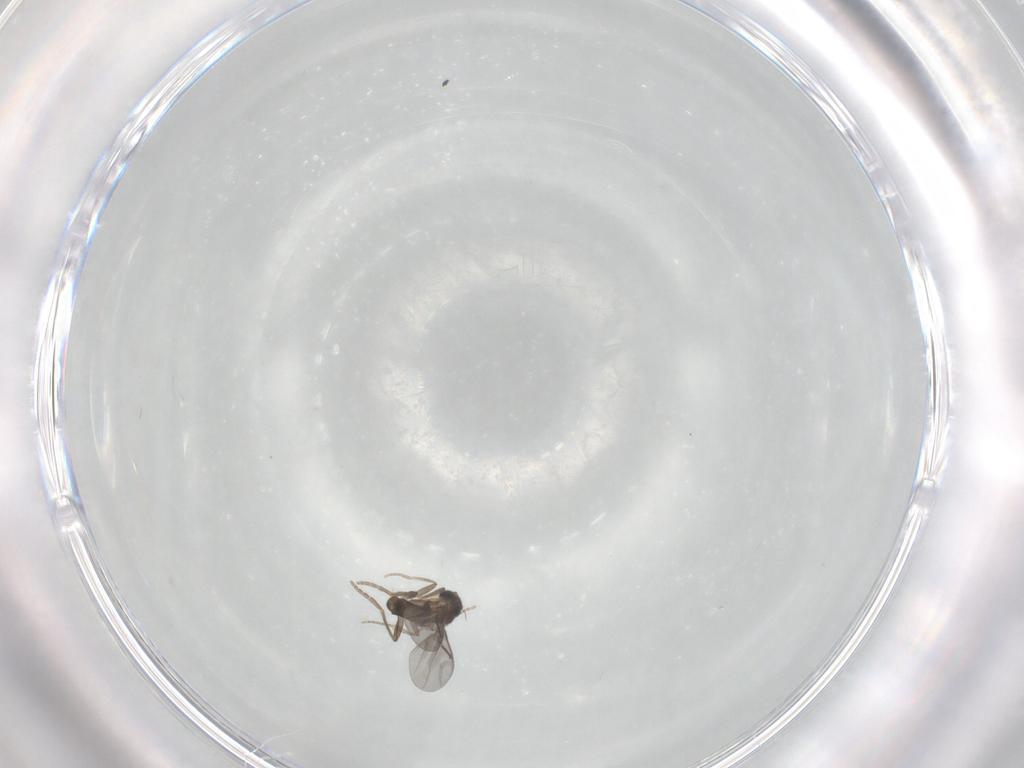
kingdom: Animalia
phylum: Arthropoda
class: Insecta
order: Diptera
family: Cecidomyiidae
